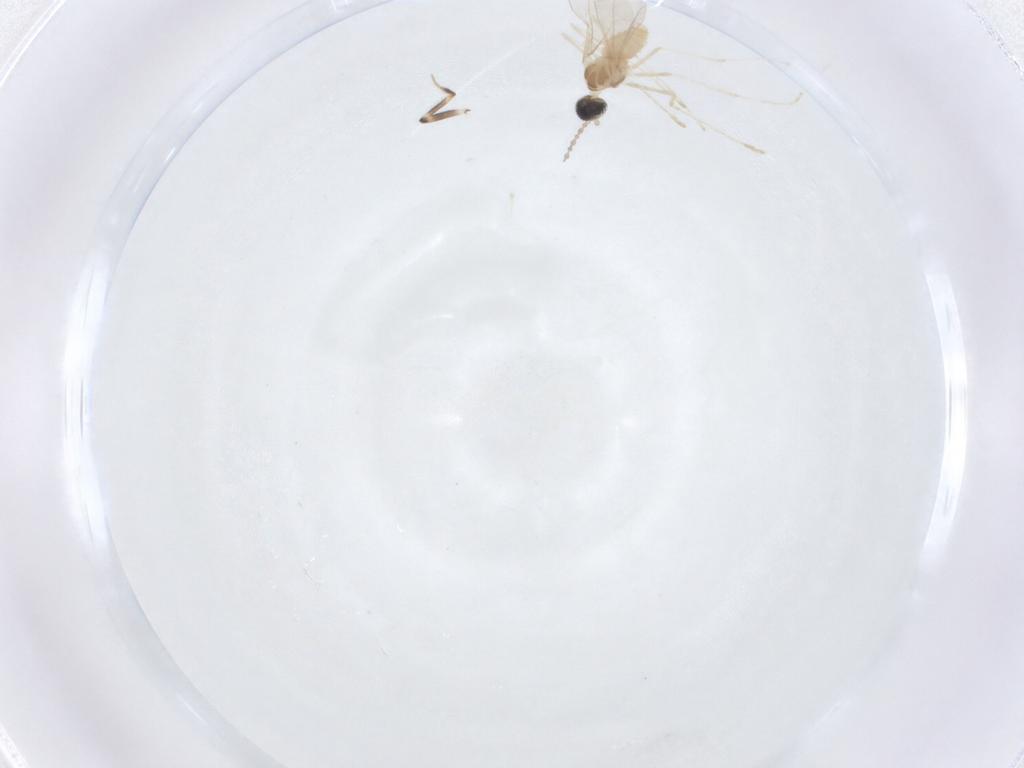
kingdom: Animalia
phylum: Arthropoda
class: Insecta
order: Diptera
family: Cecidomyiidae
